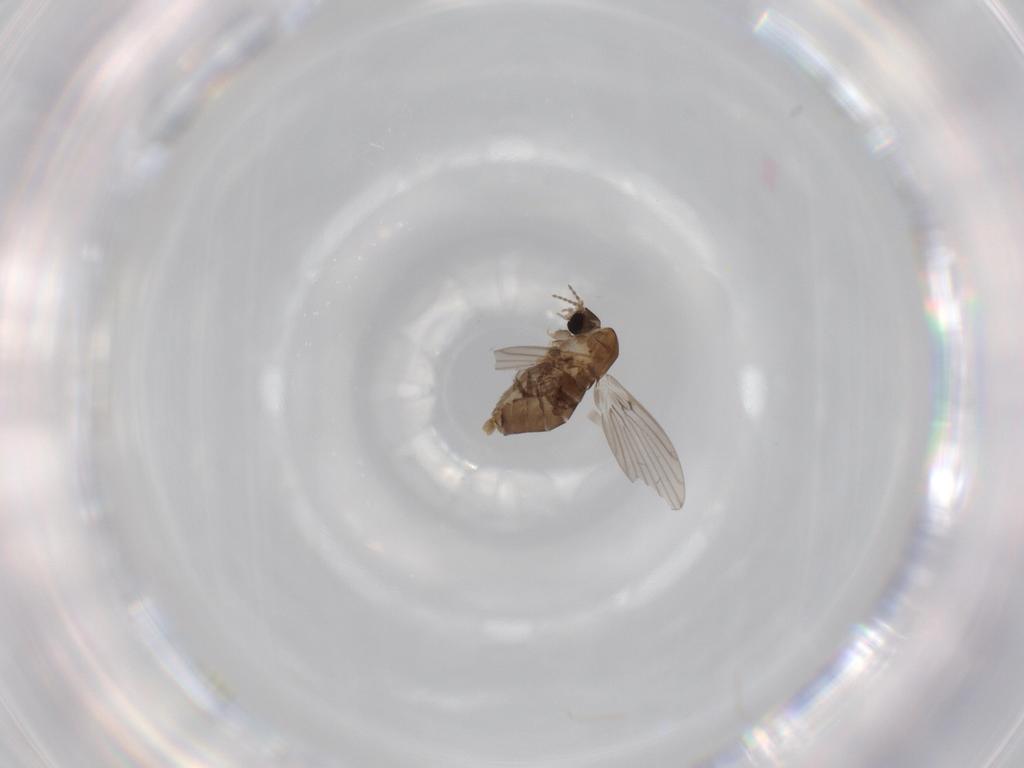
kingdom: Animalia
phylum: Arthropoda
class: Insecta
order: Diptera
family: Psychodidae
